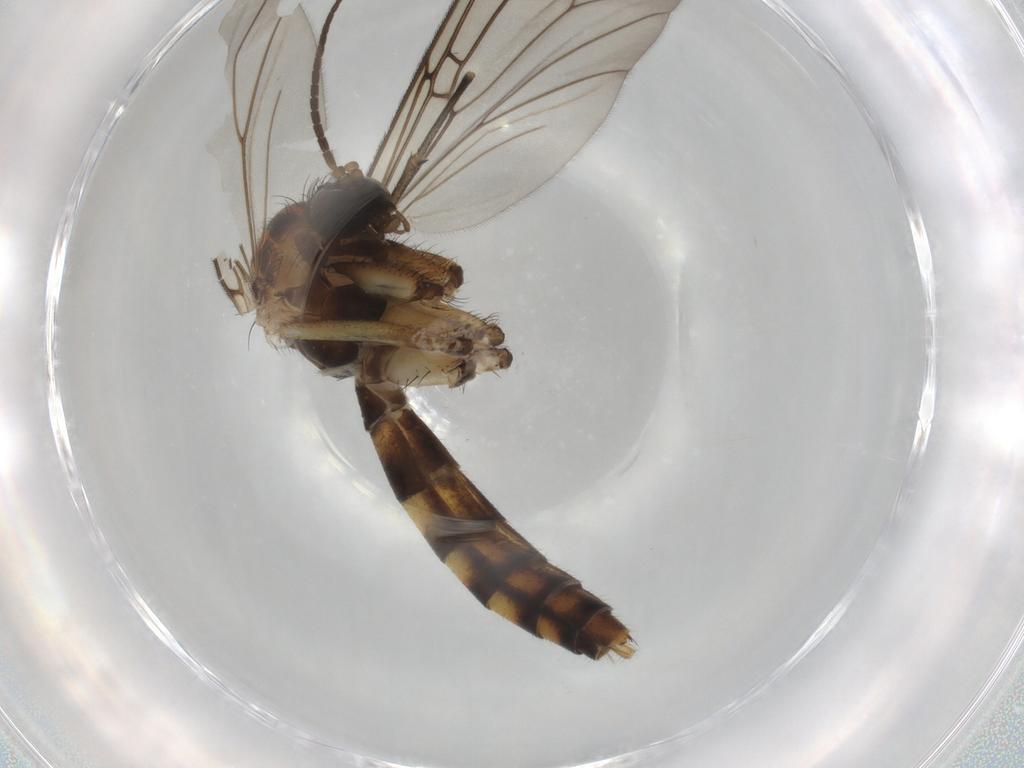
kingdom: Animalia
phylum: Arthropoda
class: Insecta
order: Diptera
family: Mycetophilidae
